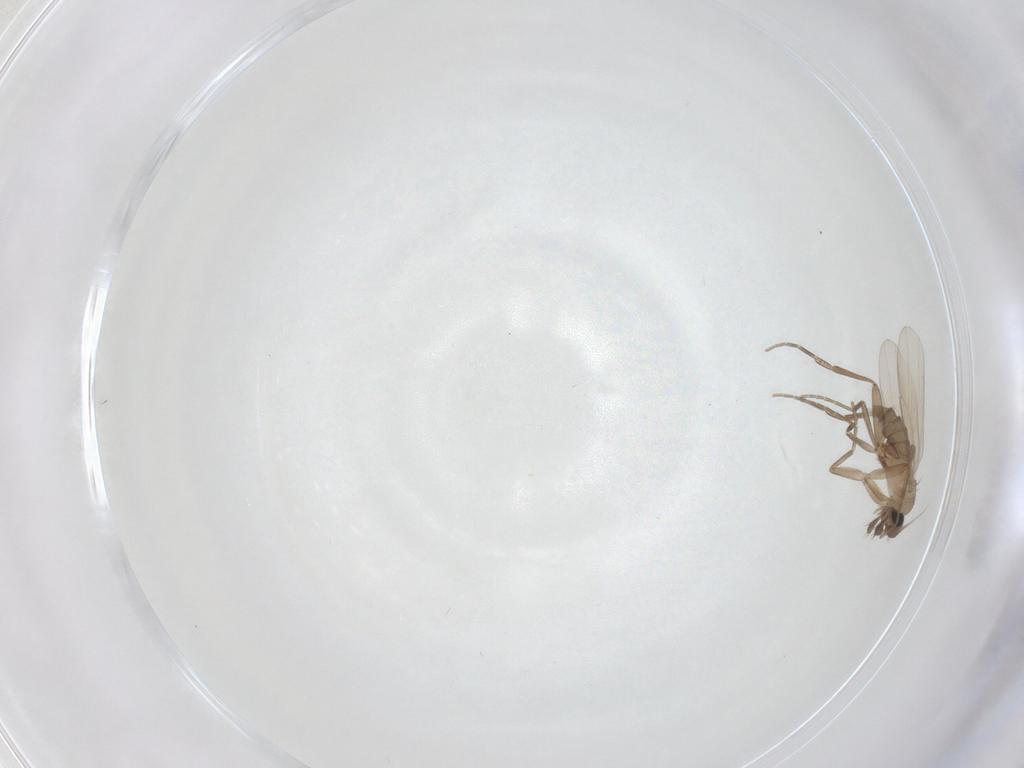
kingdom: Animalia
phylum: Arthropoda
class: Insecta
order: Diptera
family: Phoridae
